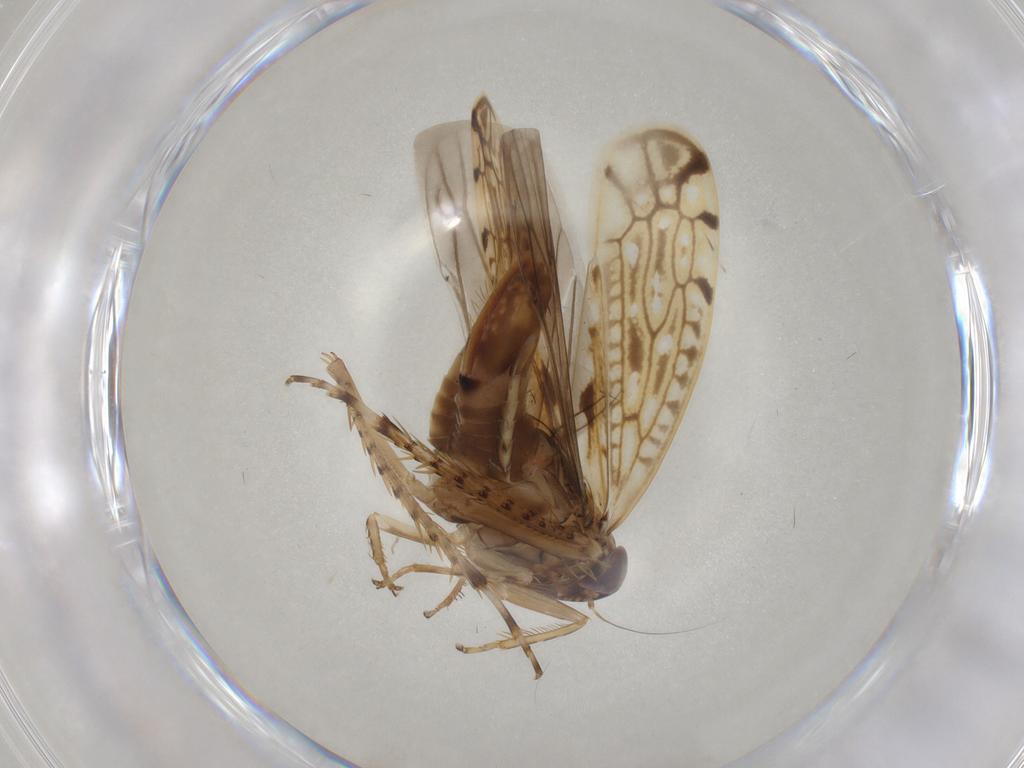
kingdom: Animalia
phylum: Arthropoda
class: Insecta
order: Hemiptera
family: Cicadellidae
